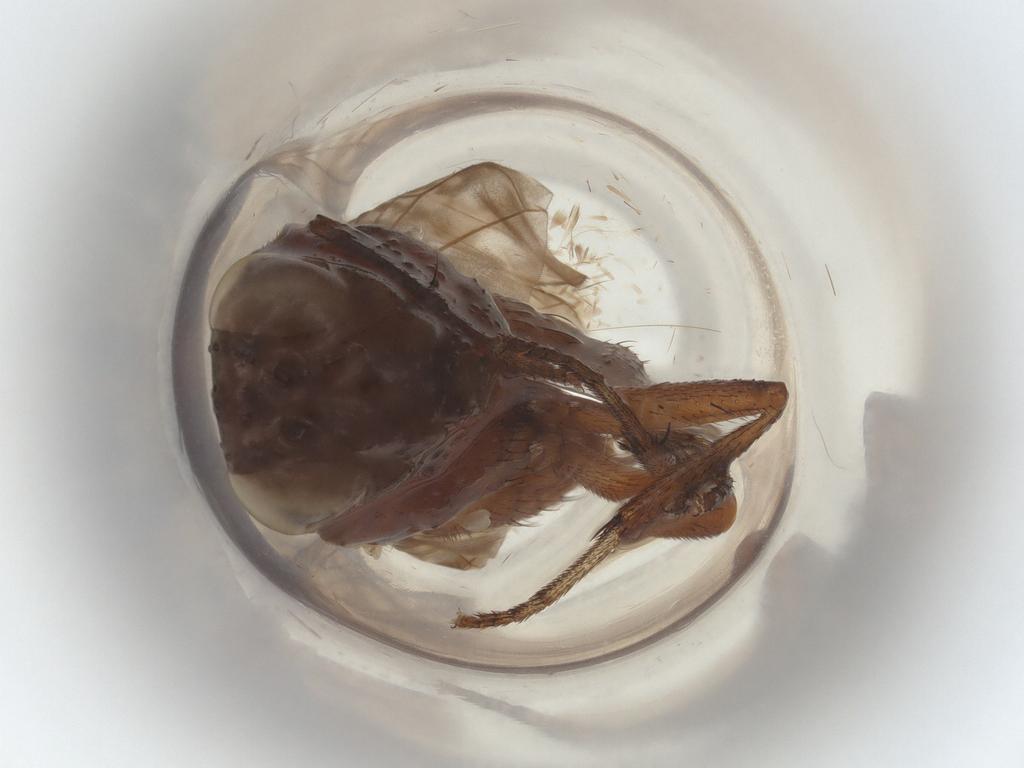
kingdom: Animalia
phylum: Arthropoda
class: Insecta
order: Hymenoptera
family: Gasteruptiidae
